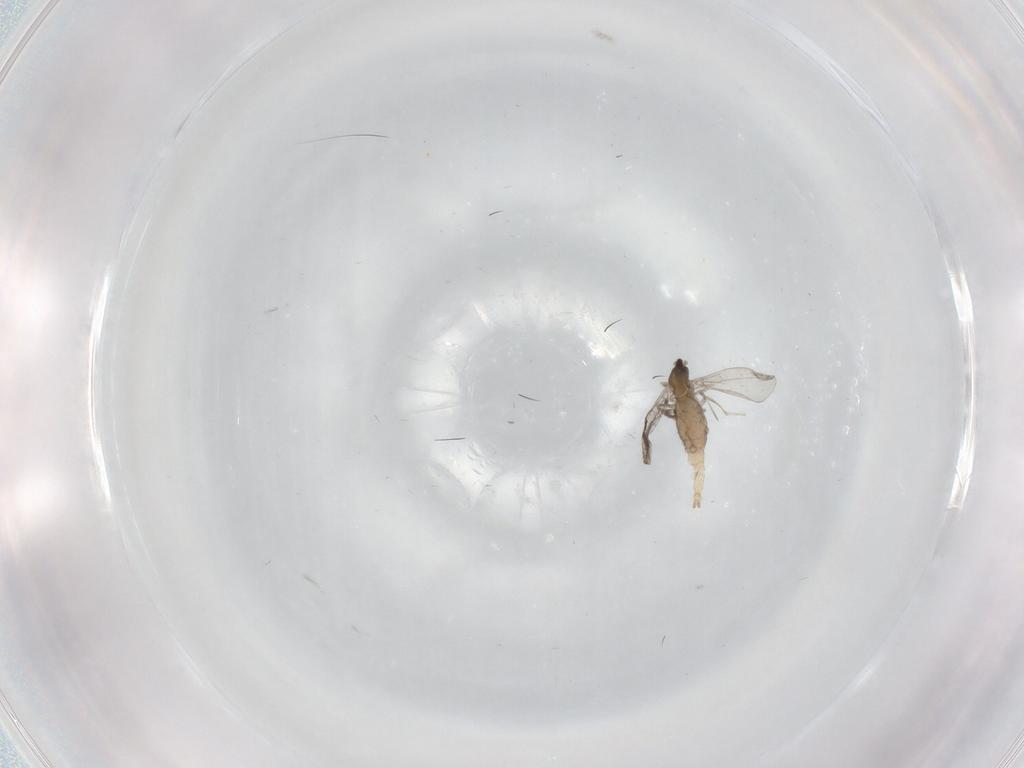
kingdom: Animalia
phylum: Arthropoda
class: Insecta
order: Diptera
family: Cecidomyiidae
